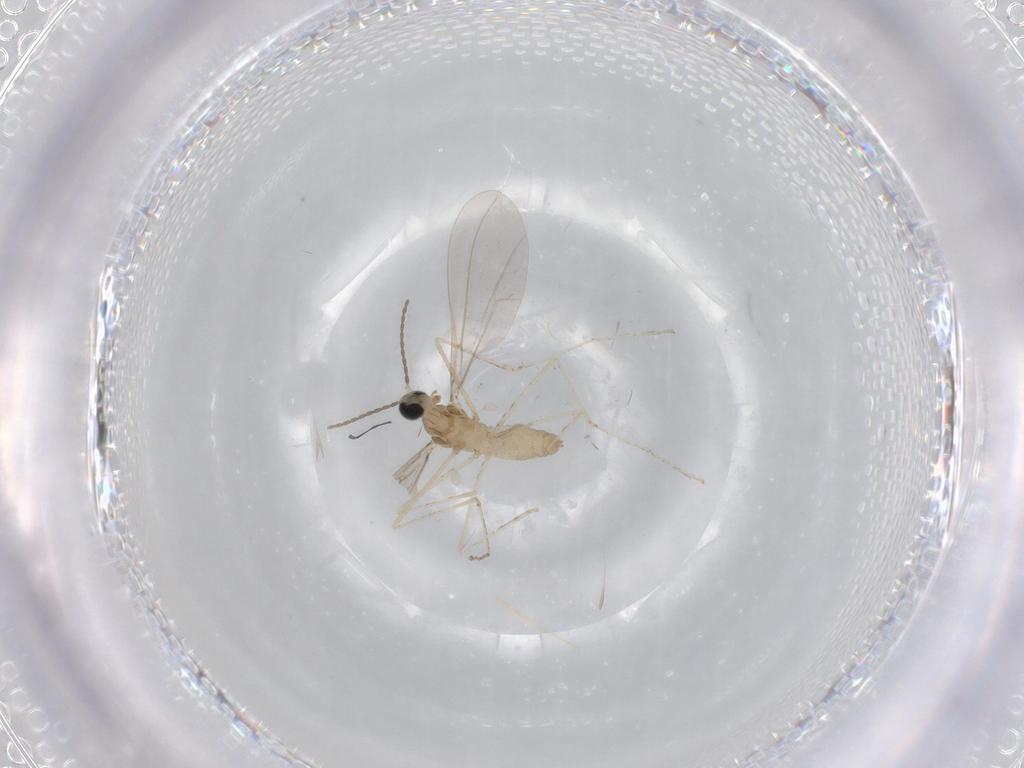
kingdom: Animalia
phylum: Arthropoda
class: Insecta
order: Diptera
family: Cecidomyiidae
